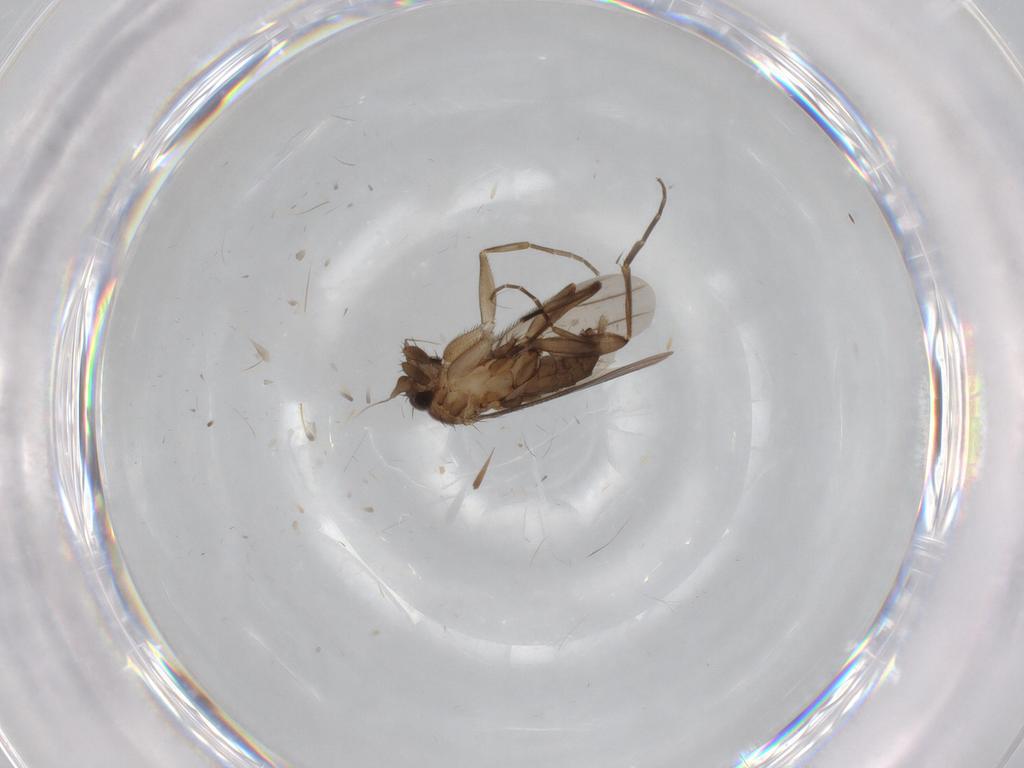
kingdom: Animalia
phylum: Arthropoda
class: Insecta
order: Diptera
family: Phoridae
